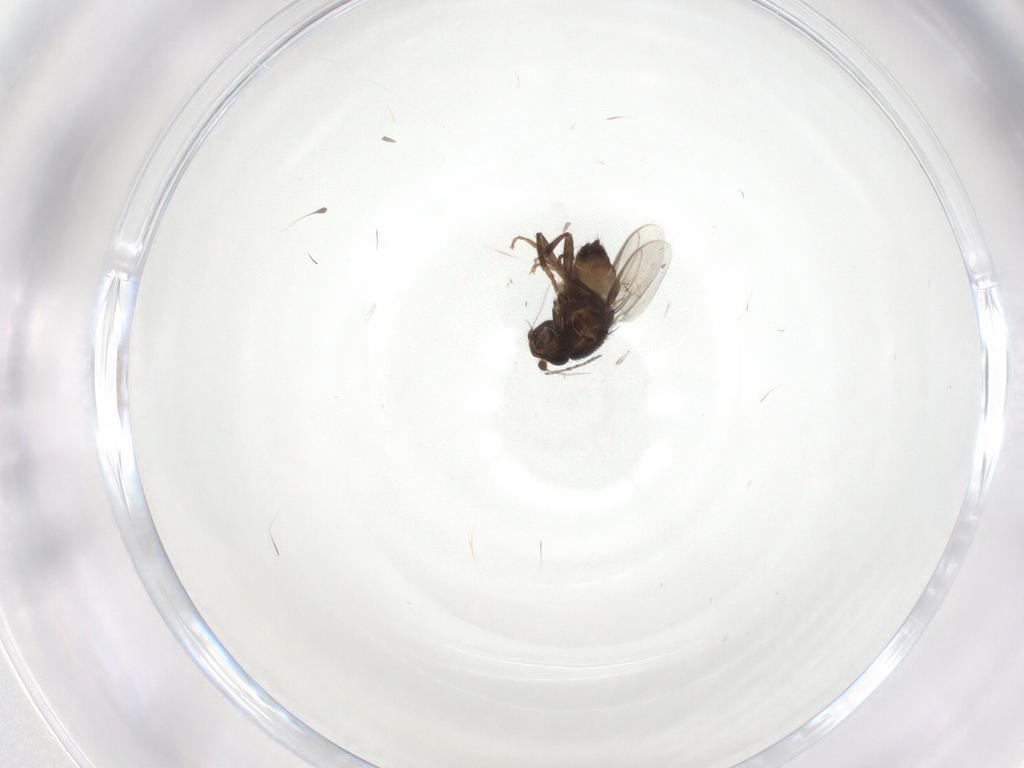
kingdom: Animalia
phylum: Arthropoda
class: Insecta
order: Diptera
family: Sphaeroceridae
